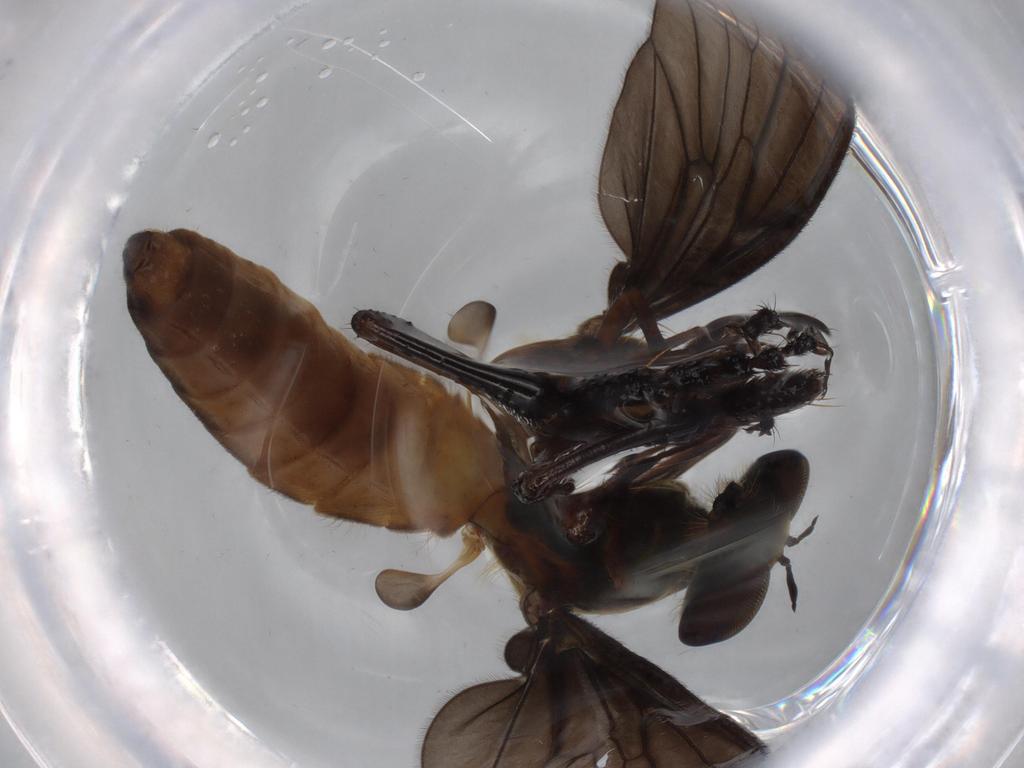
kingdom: Animalia
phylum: Arthropoda
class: Insecta
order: Diptera
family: Asilidae
